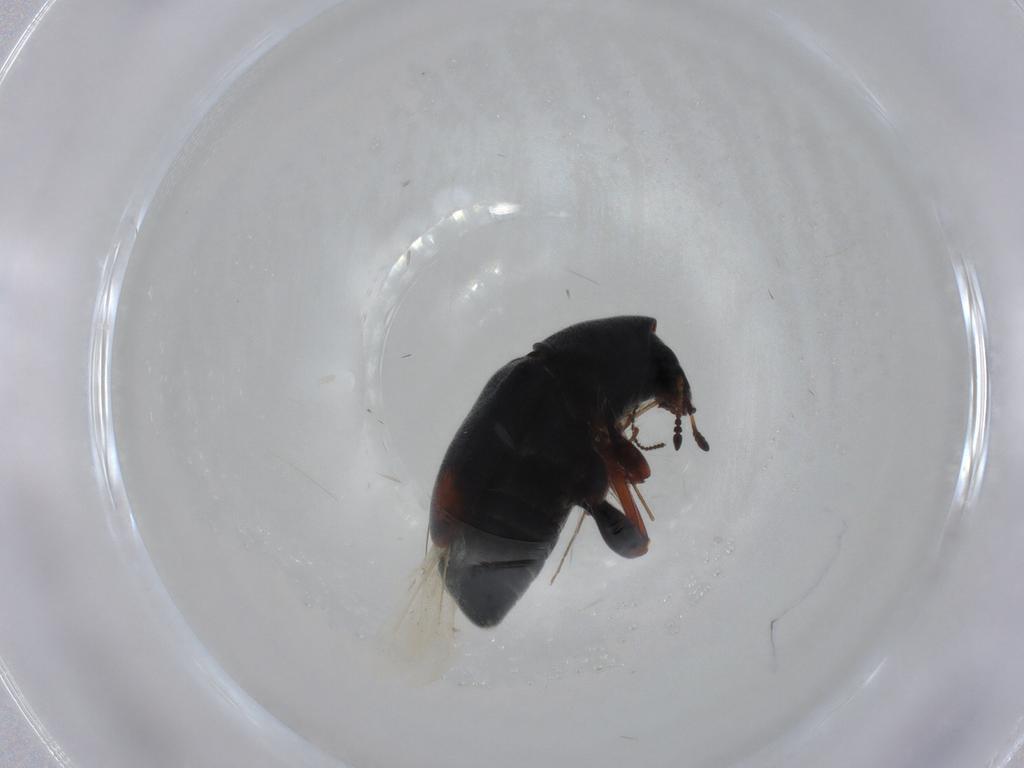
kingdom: Animalia
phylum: Arthropoda
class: Insecta
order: Coleoptera
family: Anthribidae
